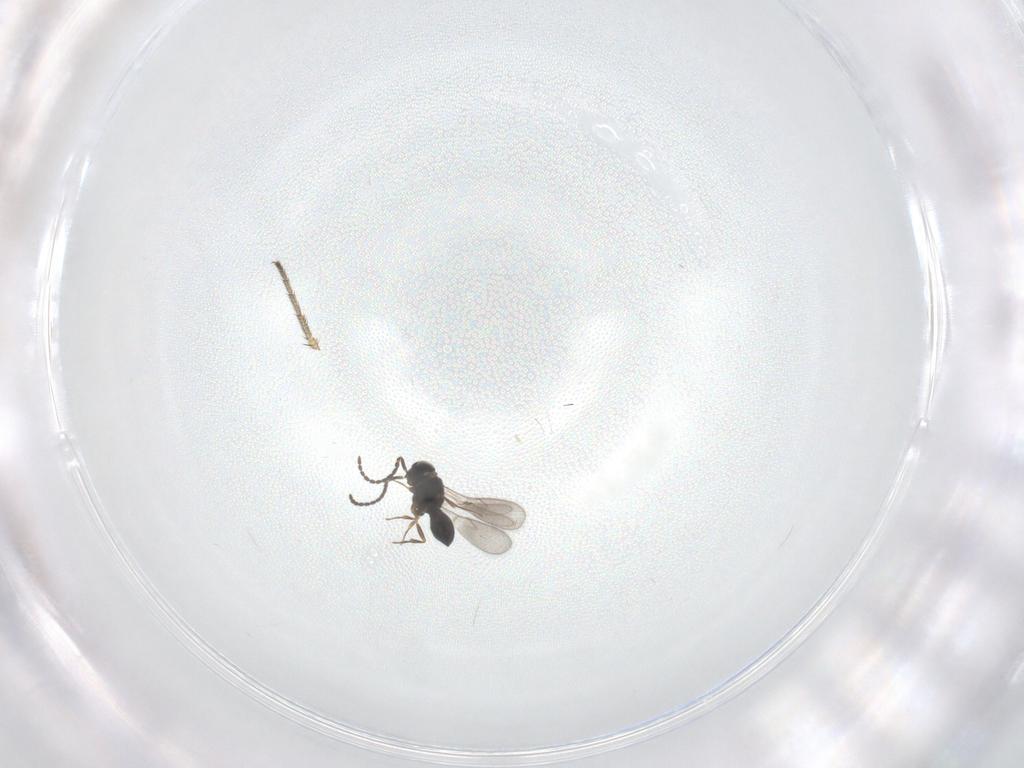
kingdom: Animalia
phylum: Arthropoda
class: Insecta
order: Hymenoptera
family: Scelionidae
